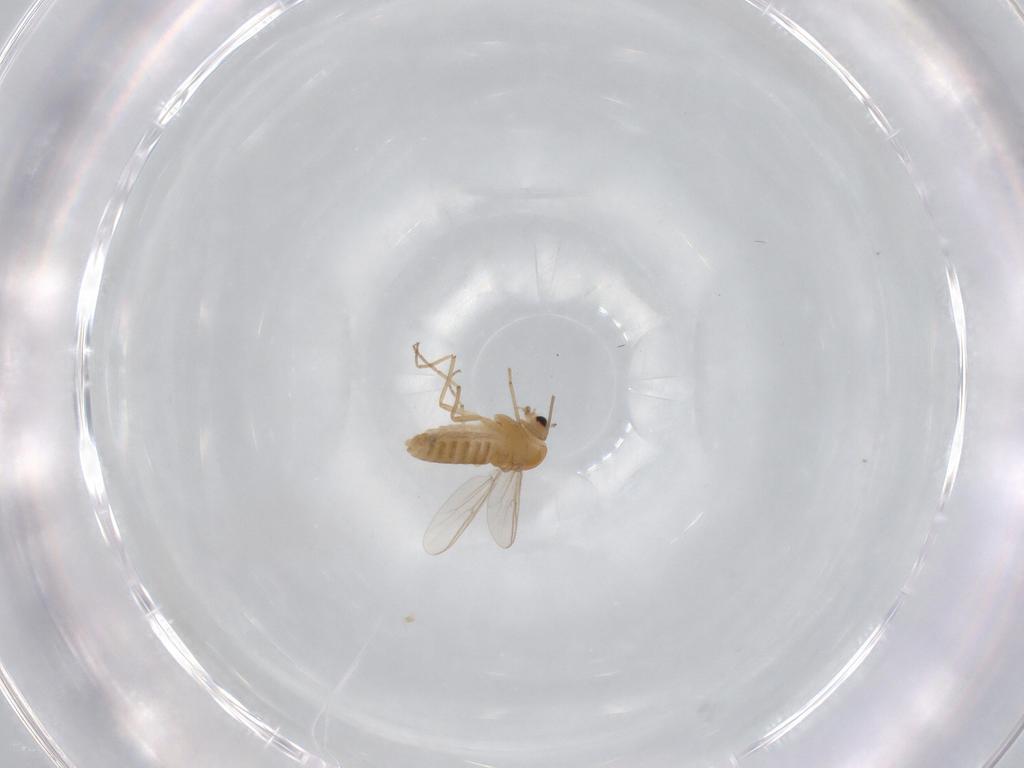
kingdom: Animalia
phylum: Arthropoda
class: Insecta
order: Diptera
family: Chironomidae
